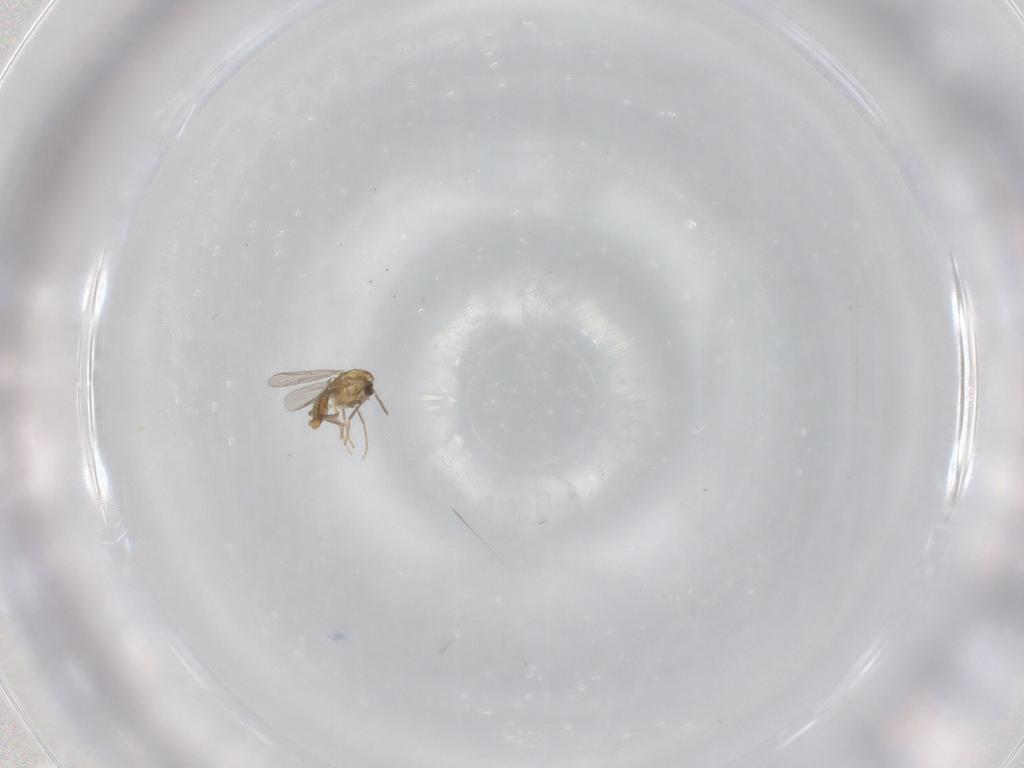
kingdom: Animalia
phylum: Arthropoda
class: Insecta
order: Diptera
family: Chironomidae
